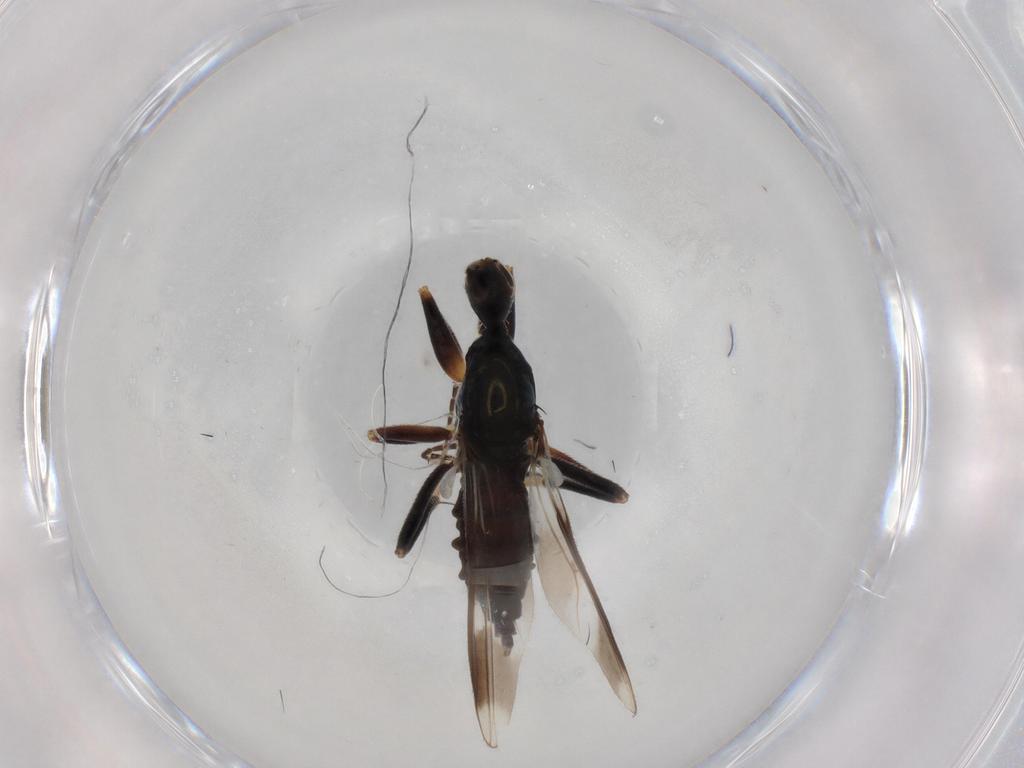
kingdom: Animalia
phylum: Arthropoda
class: Insecta
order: Diptera
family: Hybotidae
